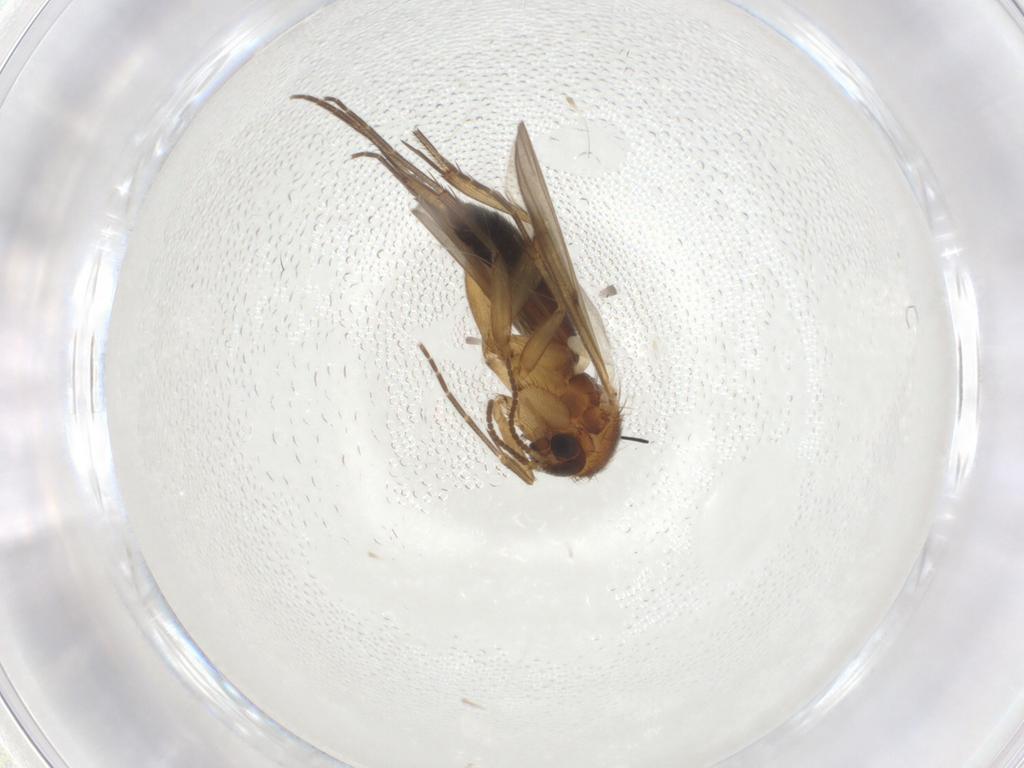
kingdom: Animalia
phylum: Arthropoda
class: Insecta
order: Diptera
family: Mycetophilidae
